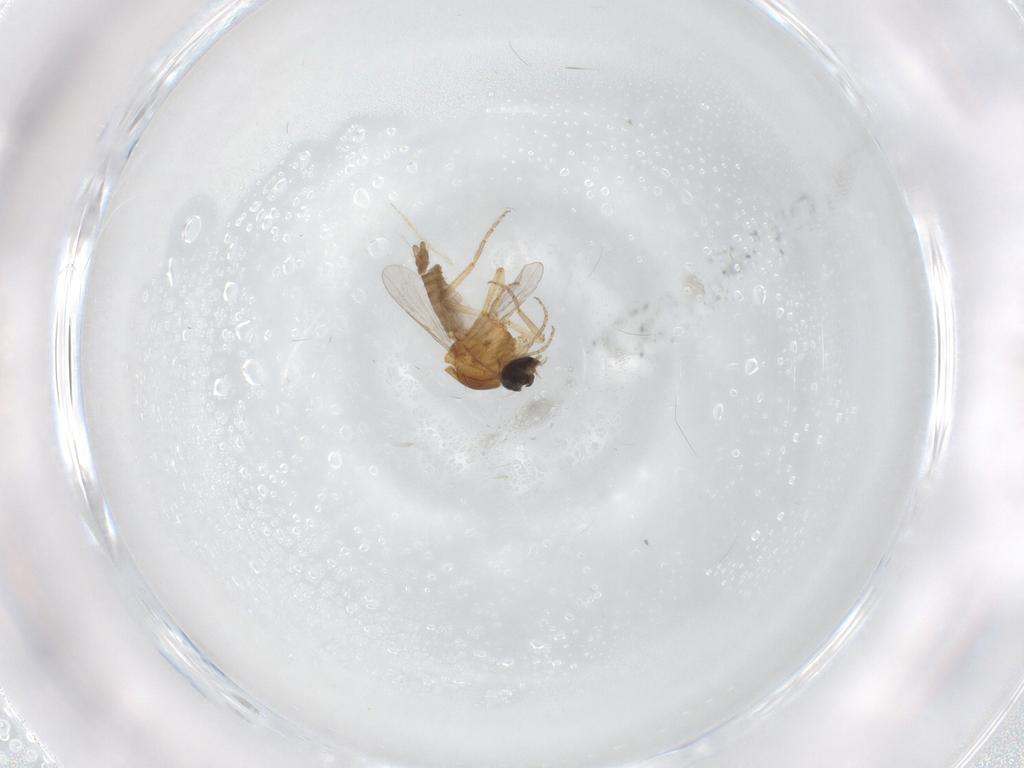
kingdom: Animalia
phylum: Arthropoda
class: Insecta
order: Diptera
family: Ceratopogonidae
